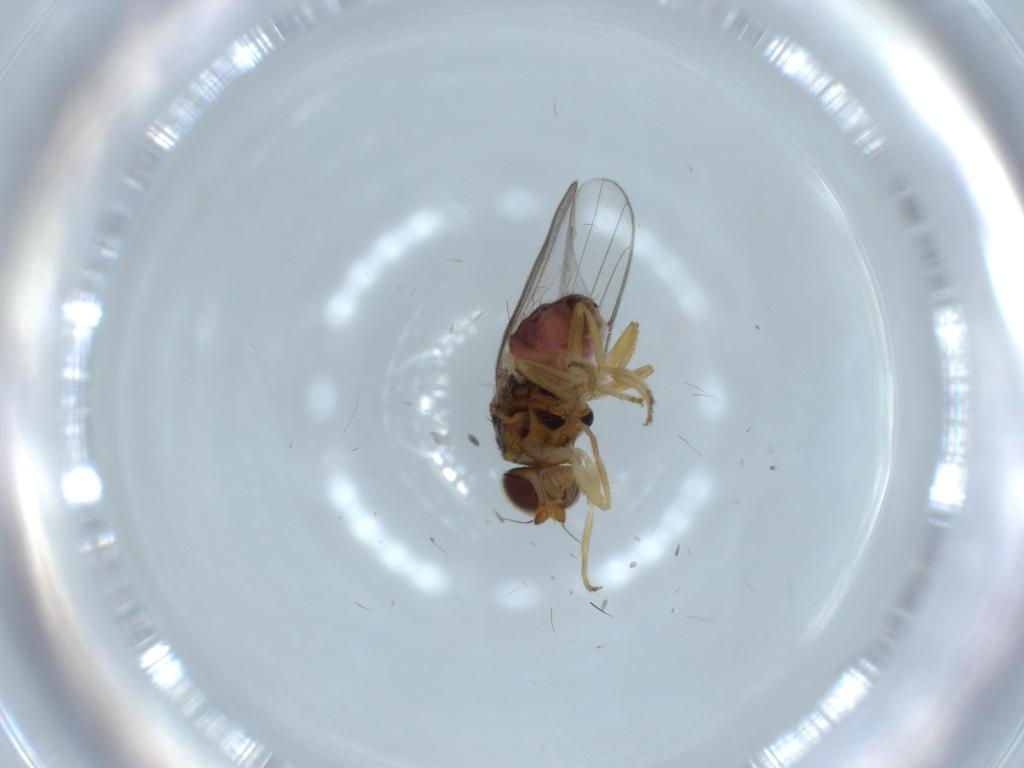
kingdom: Animalia
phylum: Arthropoda
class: Insecta
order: Diptera
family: Chloropidae
